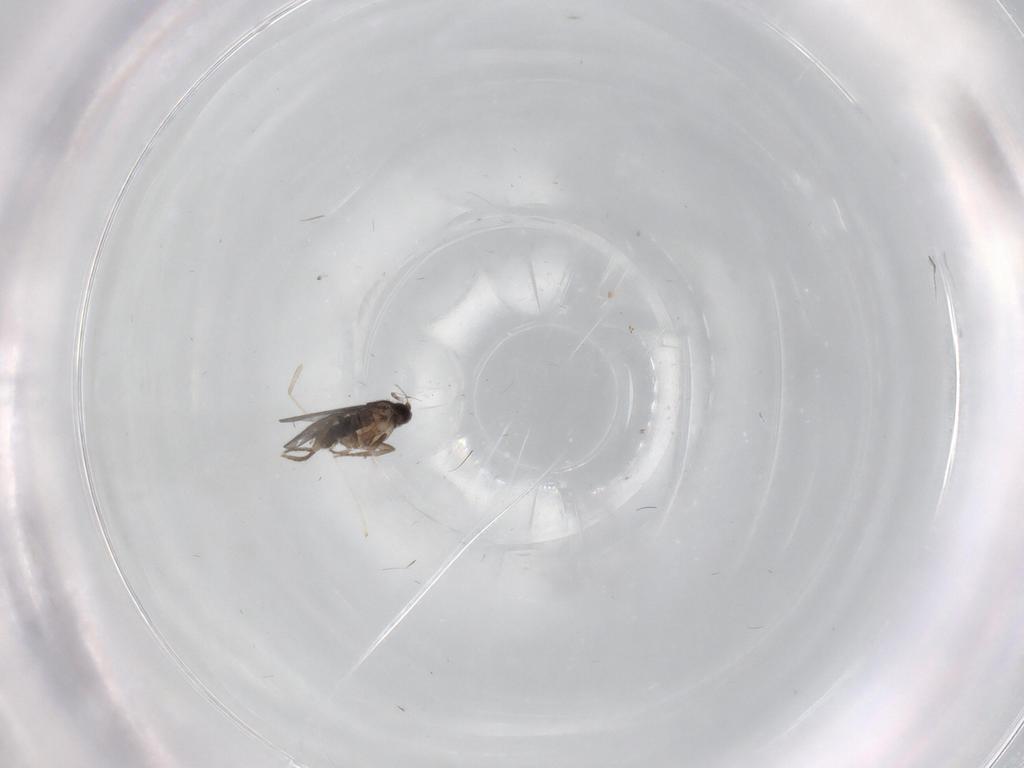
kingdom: Animalia
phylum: Arthropoda
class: Insecta
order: Diptera
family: Cecidomyiidae
